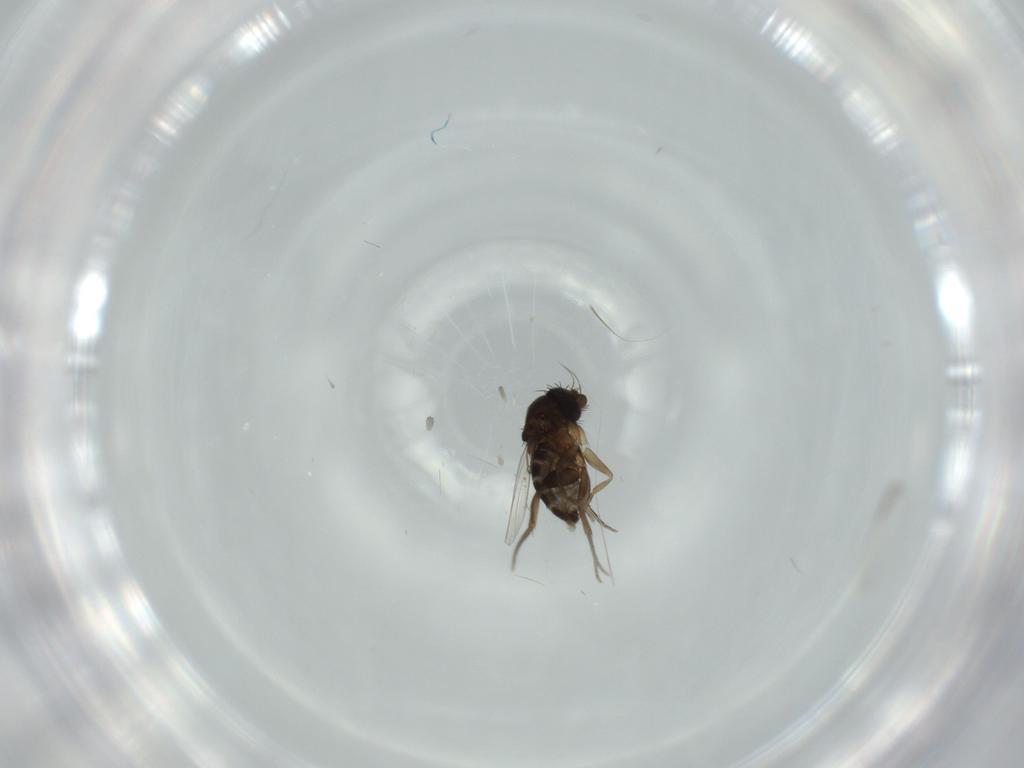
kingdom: Animalia
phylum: Arthropoda
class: Insecta
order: Diptera
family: Phoridae
